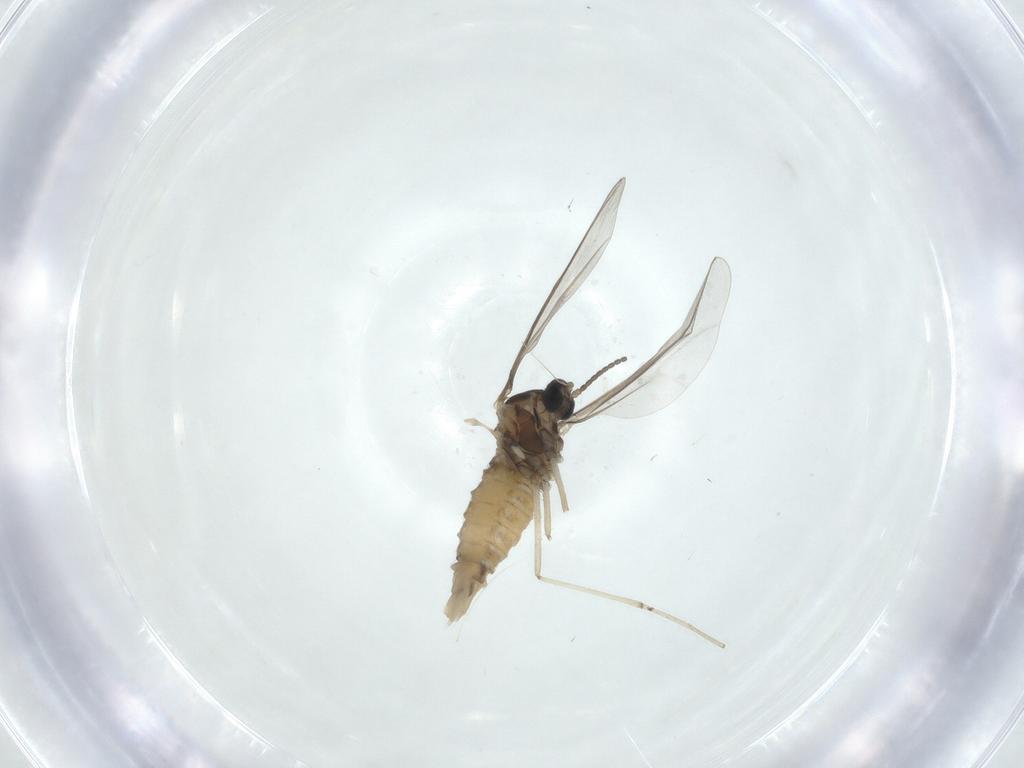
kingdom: Animalia
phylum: Arthropoda
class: Insecta
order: Diptera
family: Cecidomyiidae
